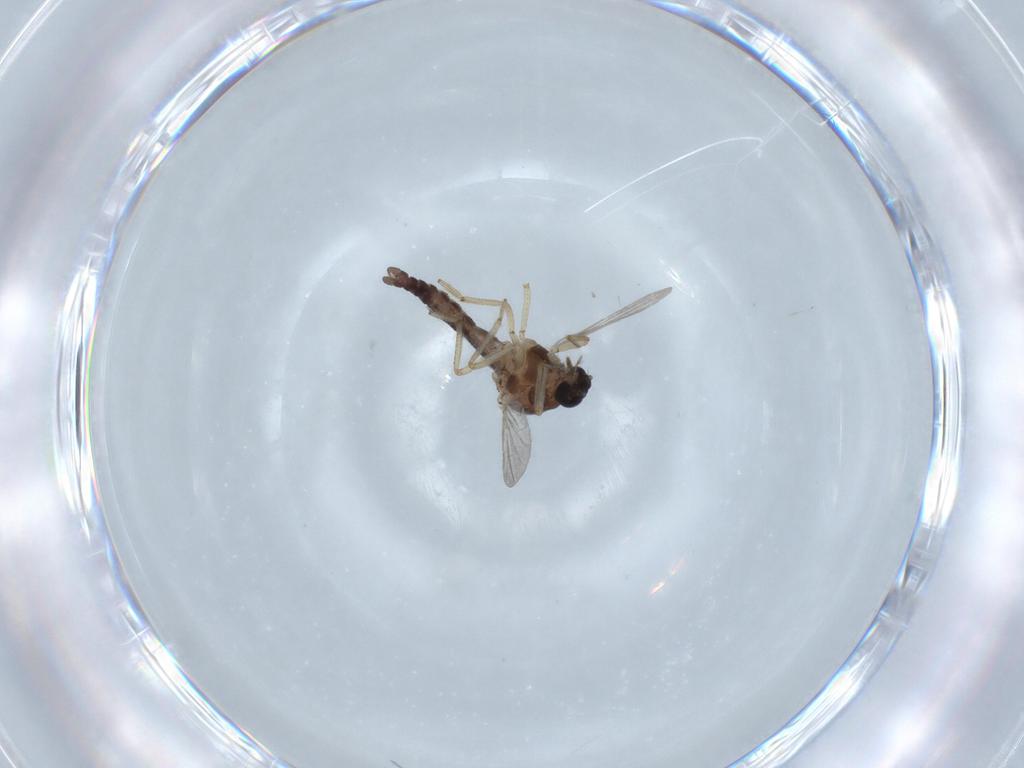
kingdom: Animalia
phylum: Arthropoda
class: Insecta
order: Diptera
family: Ceratopogonidae
